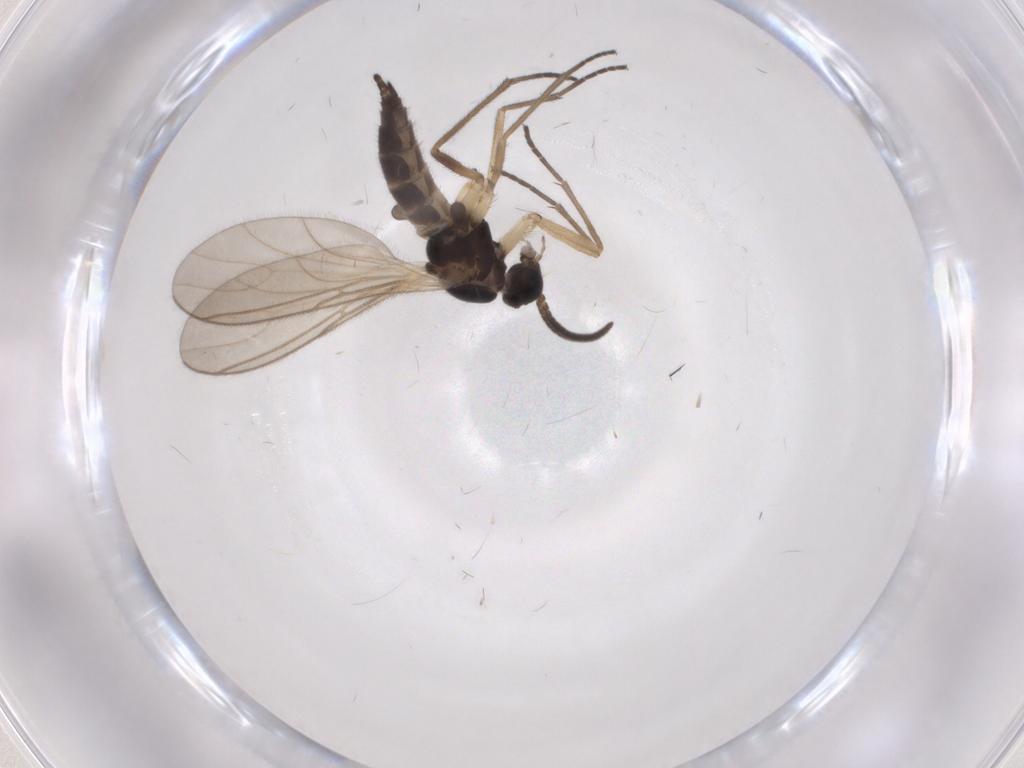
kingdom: Animalia
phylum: Arthropoda
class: Insecta
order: Diptera
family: Sciaridae
